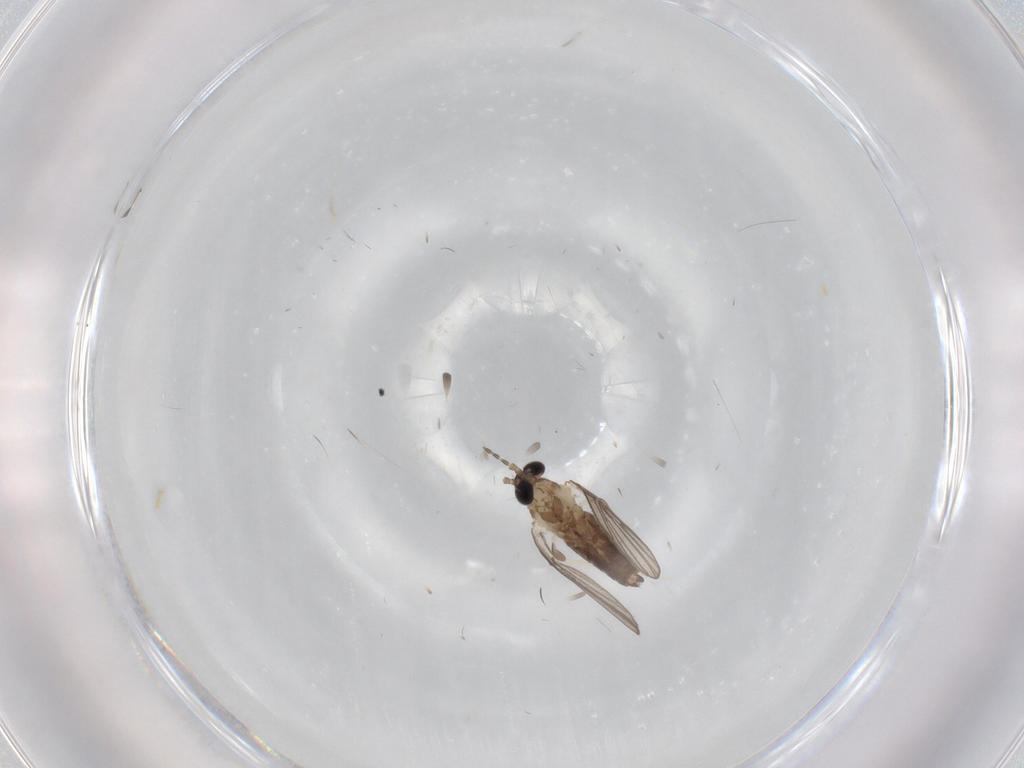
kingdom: Animalia
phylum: Arthropoda
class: Insecta
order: Diptera
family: Psychodidae
